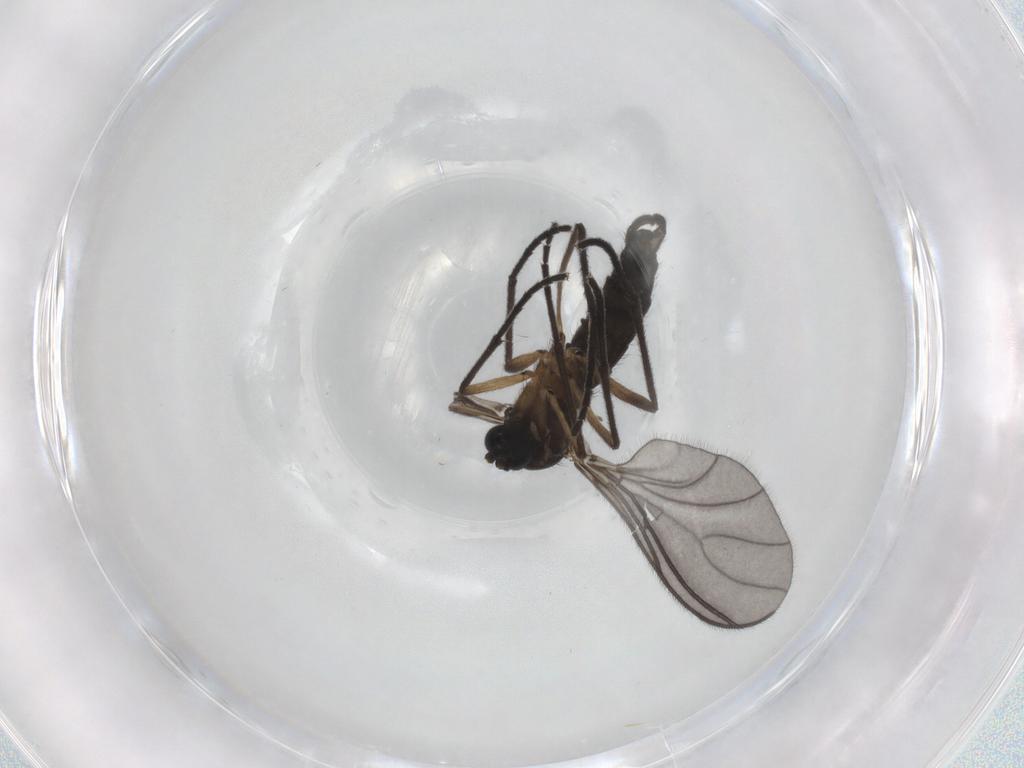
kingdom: Animalia
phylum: Arthropoda
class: Insecta
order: Diptera
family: Sciaridae
